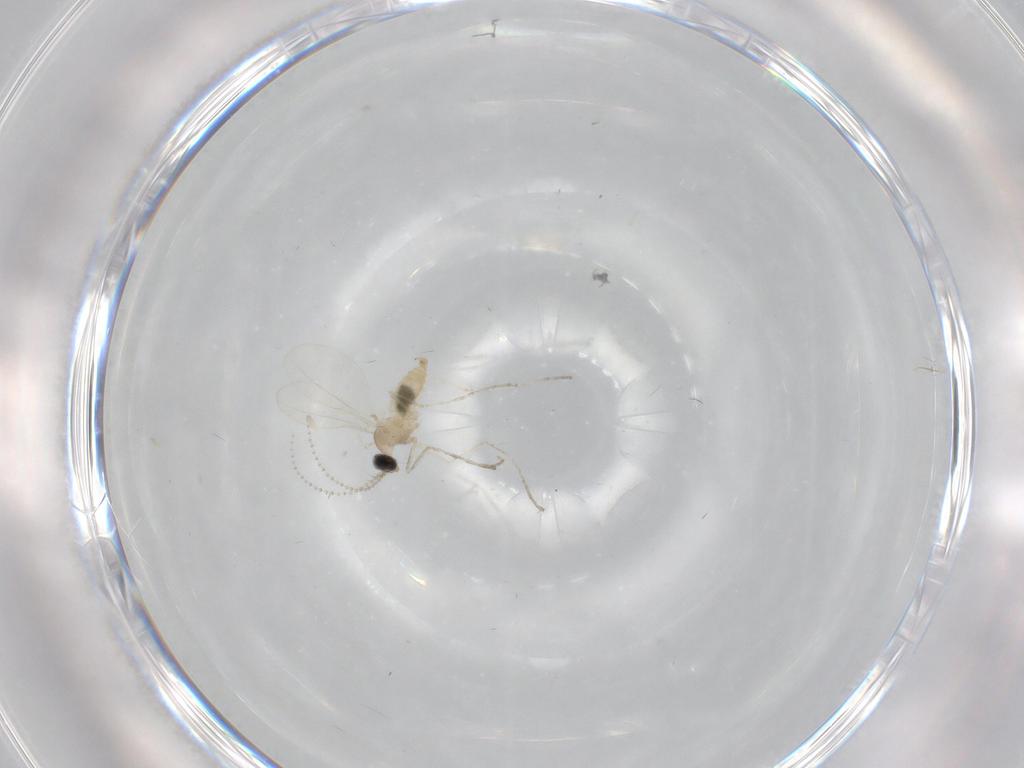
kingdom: Animalia
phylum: Arthropoda
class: Insecta
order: Diptera
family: Cecidomyiidae
